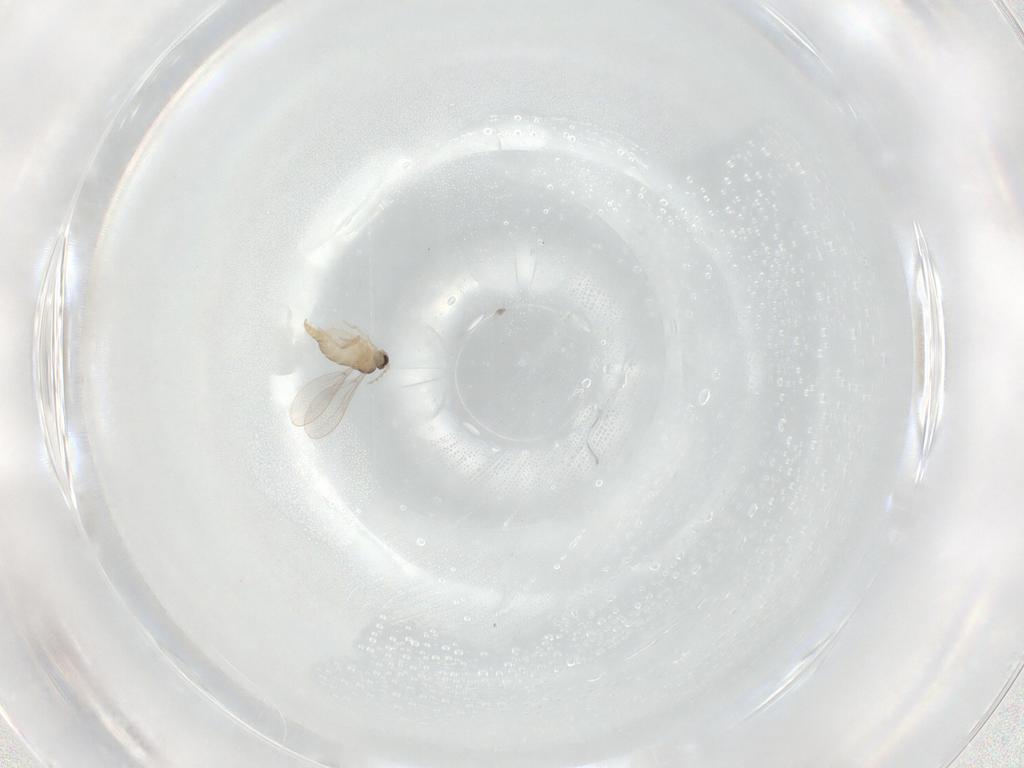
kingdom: Animalia
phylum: Arthropoda
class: Insecta
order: Diptera
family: Cecidomyiidae
